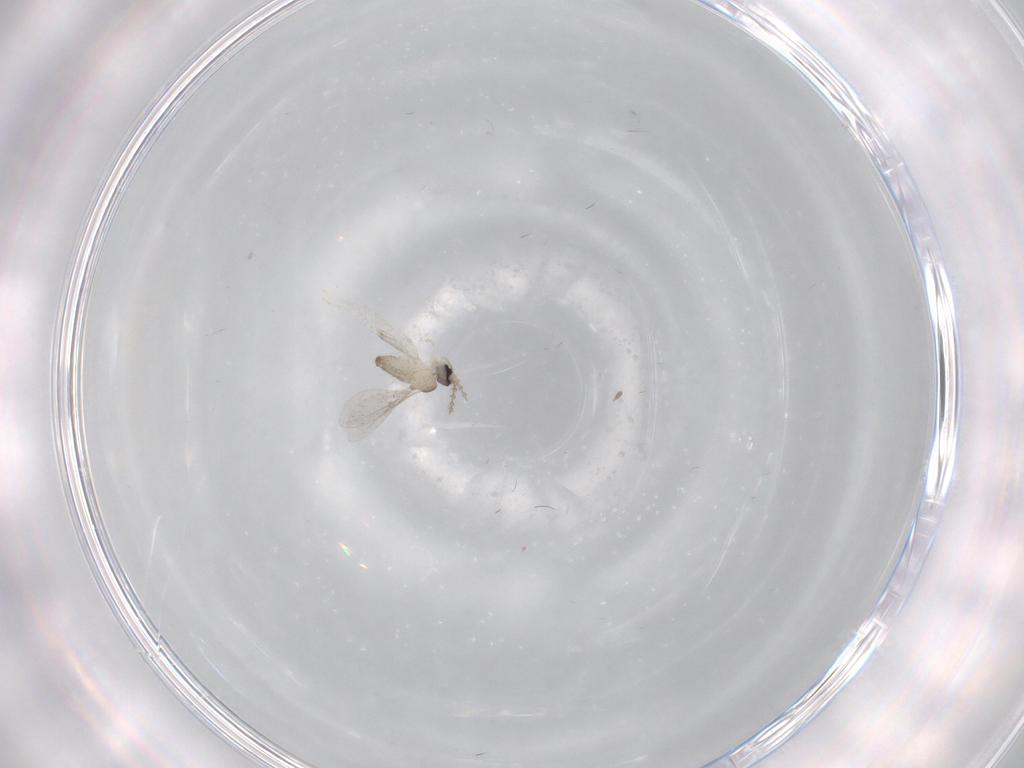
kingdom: Animalia
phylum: Arthropoda
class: Insecta
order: Diptera
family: Cecidomyiidae
